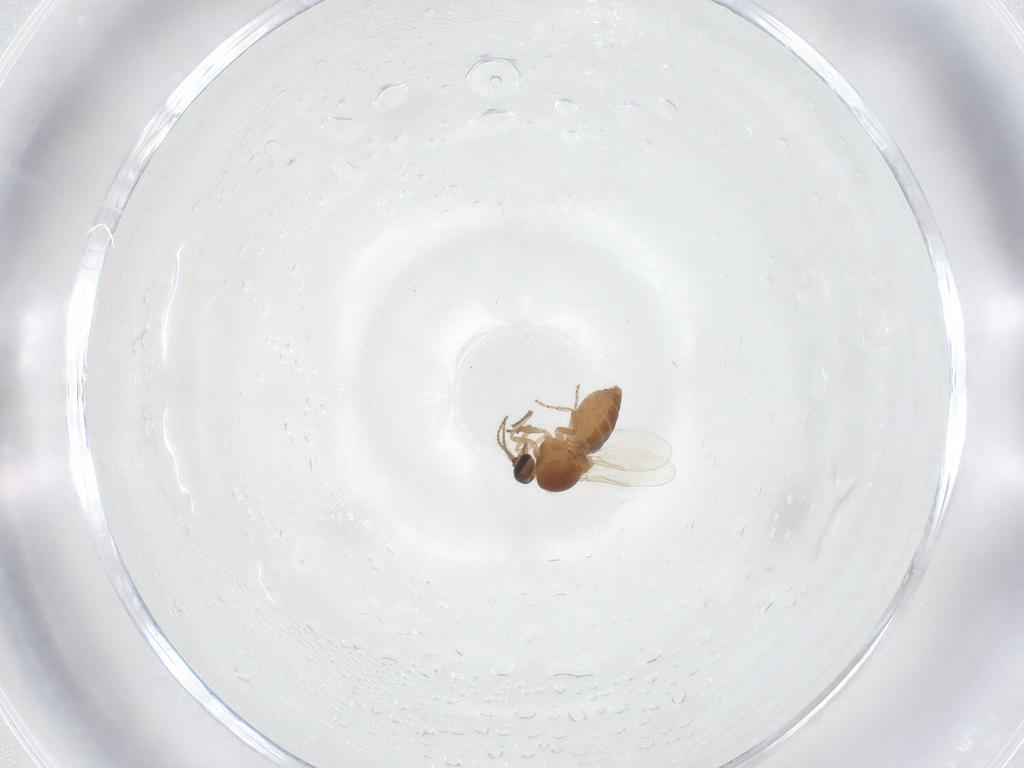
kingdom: Animalia
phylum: Arthropoda
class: Insecta
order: Diptera
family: Ceratopogonidae
